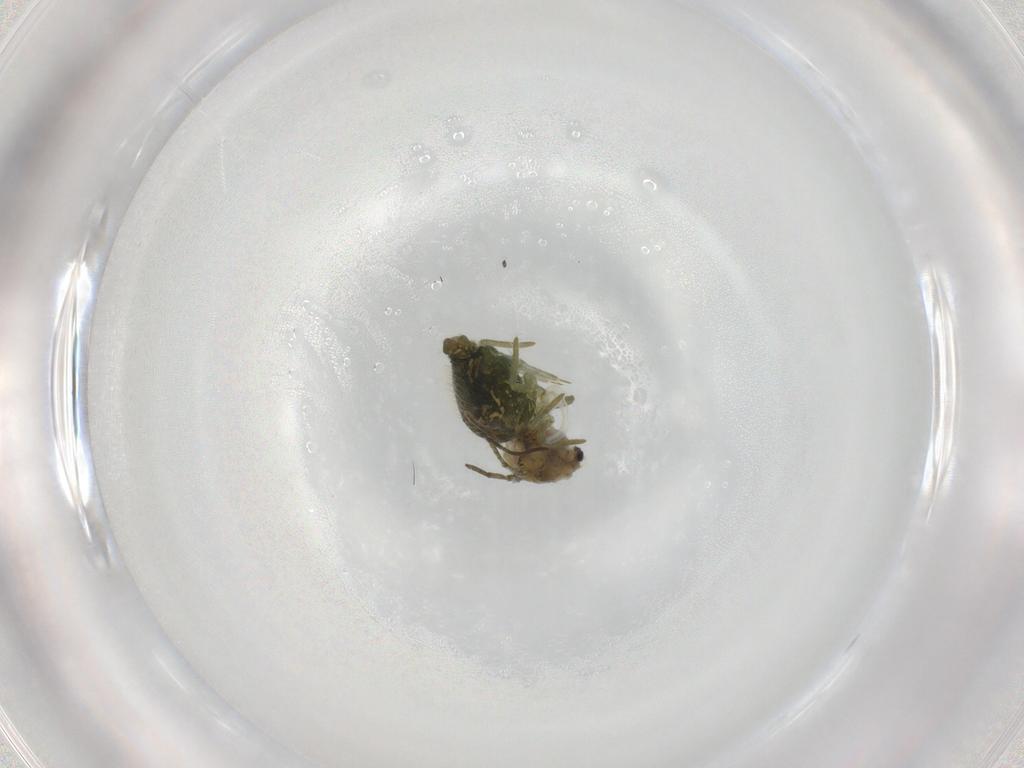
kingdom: Animalia
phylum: Arthropoda
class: Collembola
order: Symphypleona
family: Sminthuridae
